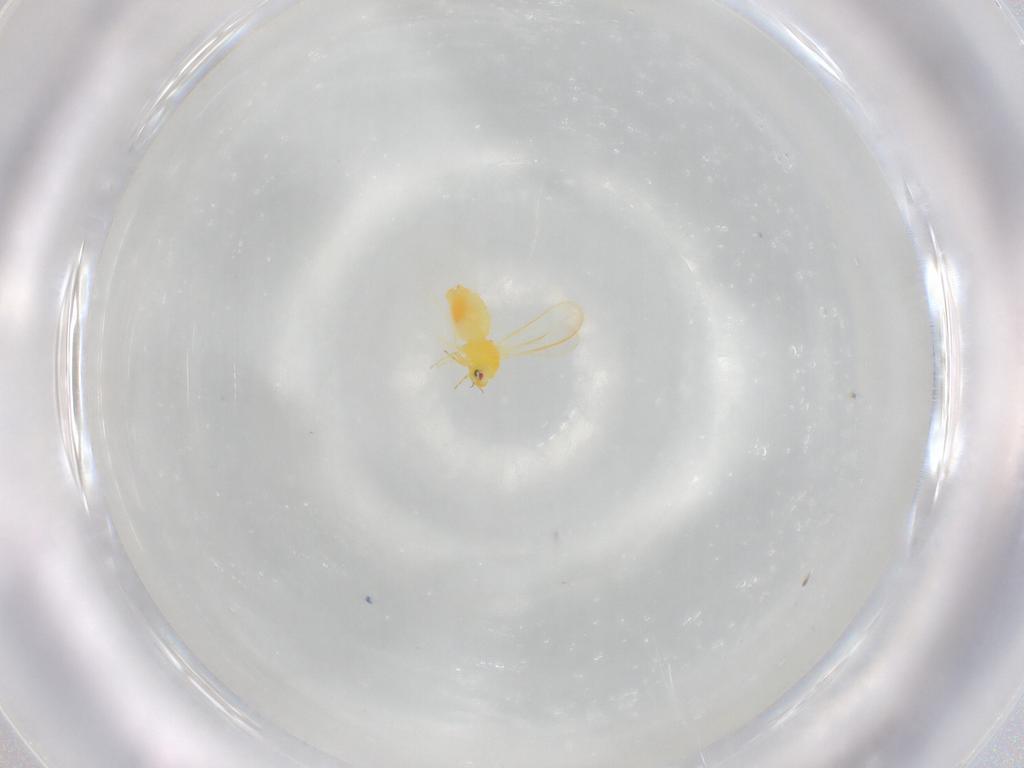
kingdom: Animalia
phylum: Arthropoda
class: Insecta
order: Hemiptera
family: Aleyrodidae
